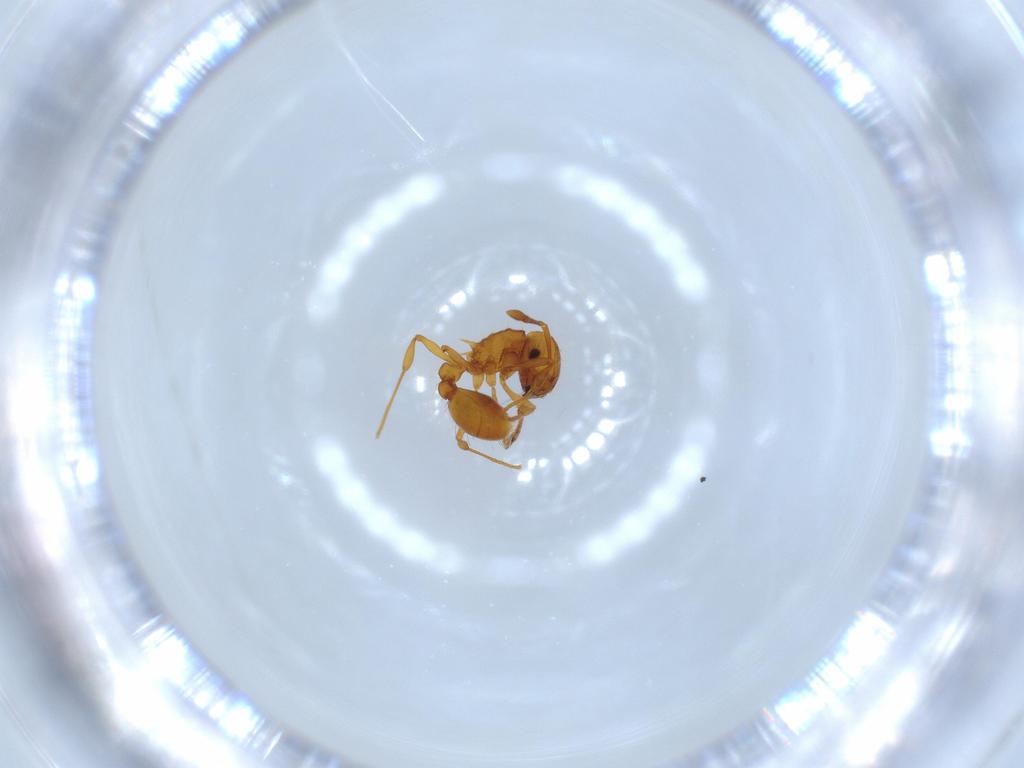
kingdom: Animalia
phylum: Arthropoda
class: Insecta
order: Hymenoptera
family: Formicidae
